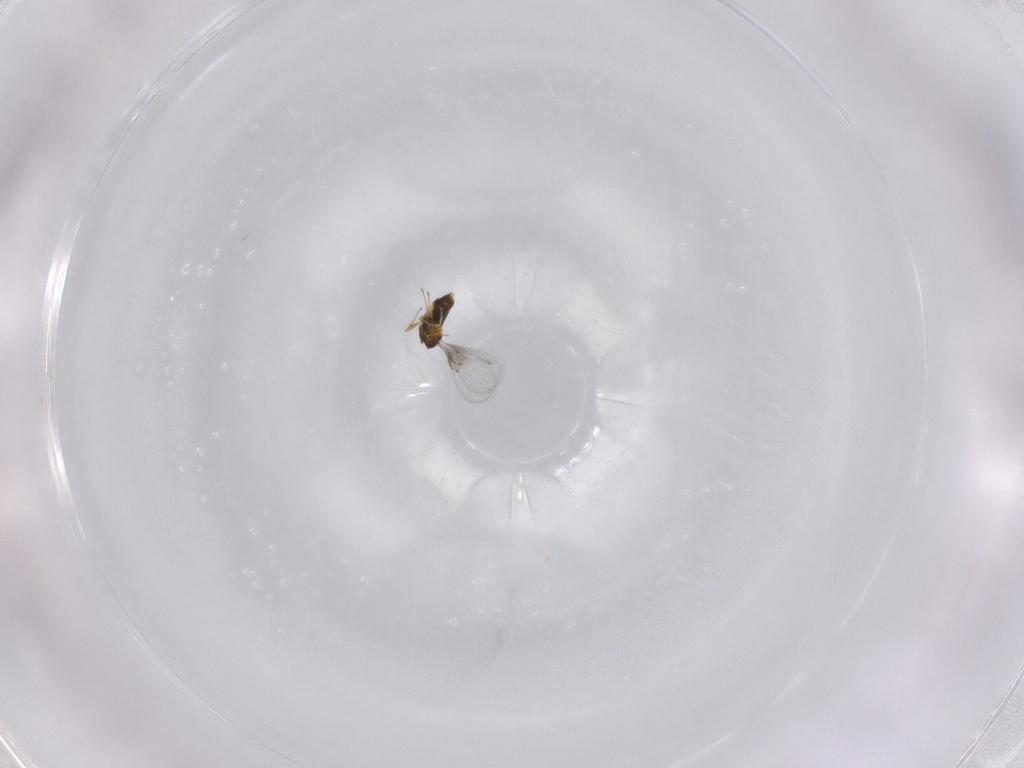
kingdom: Animalia
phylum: Arthropoda
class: Insecta
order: Hymenoptera
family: Trichogrammatidae
